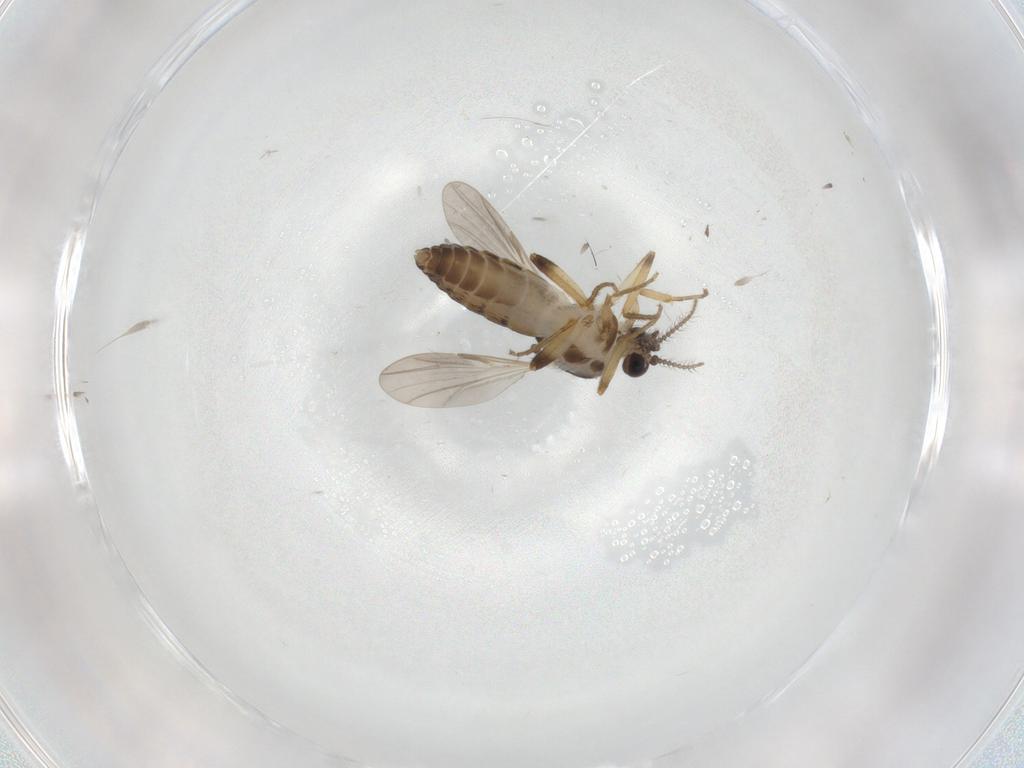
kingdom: Animalia
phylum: Arthropoda
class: Insecta
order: Diptera
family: Ceratopogonidae
